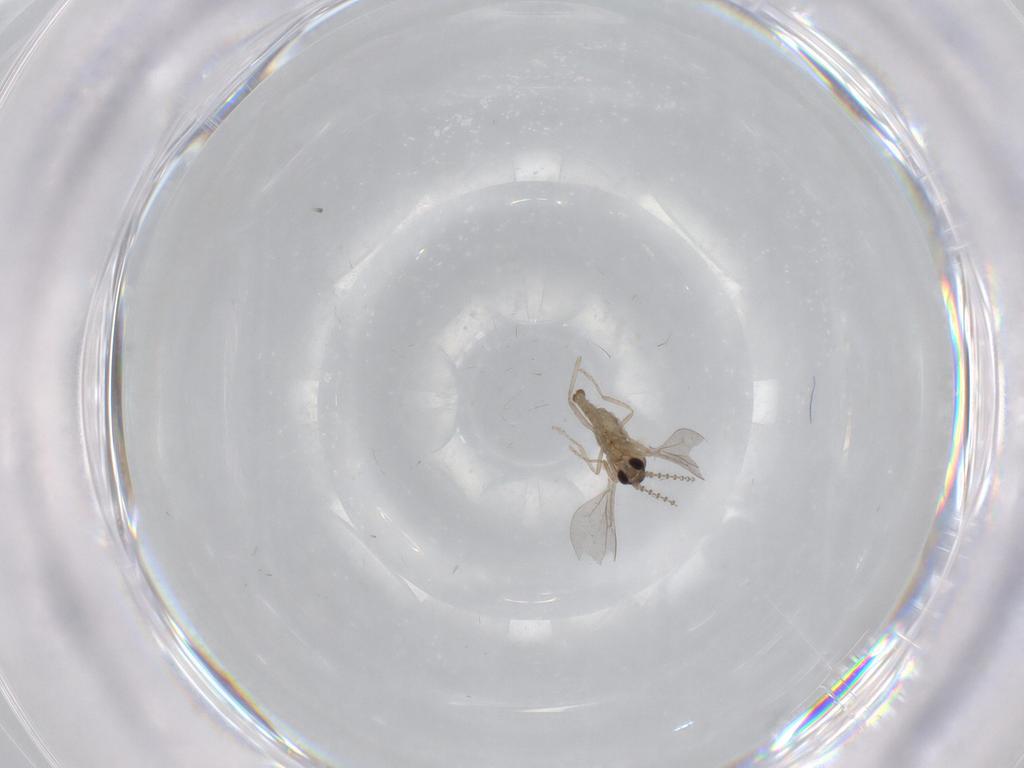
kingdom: Animalia
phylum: Arthropoda
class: Insecta
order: Diptera
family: Cecidomyiidae
